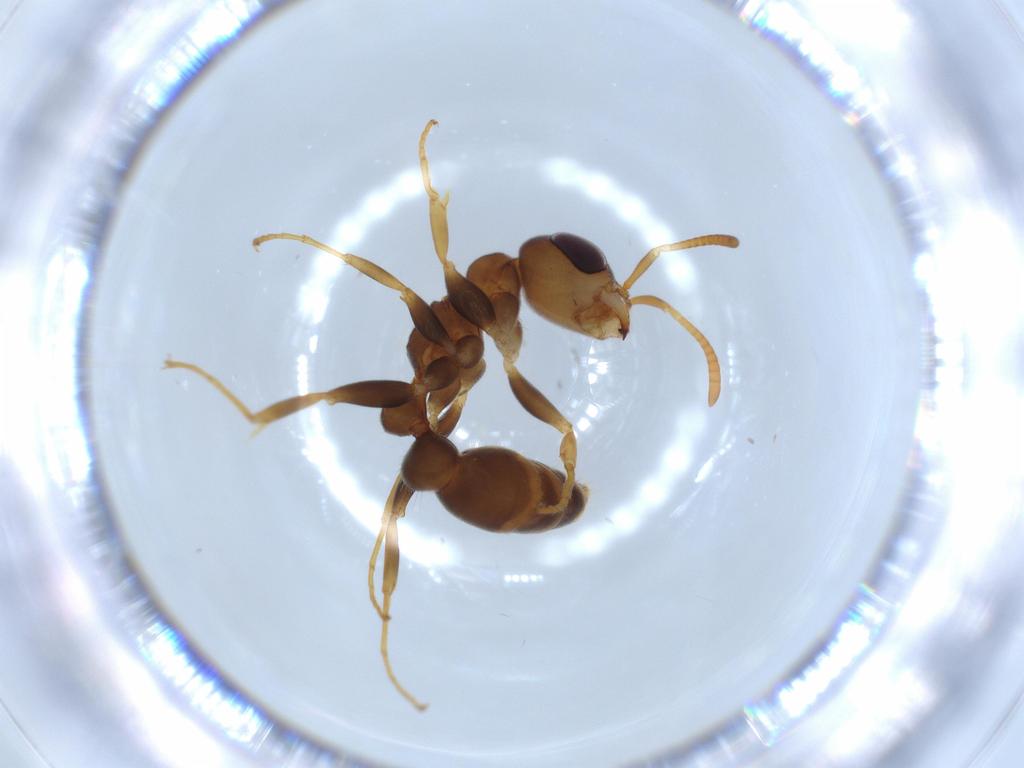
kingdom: Animalia
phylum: Arthropoda
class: Insecta
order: Hymenoptera
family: Formicidae
